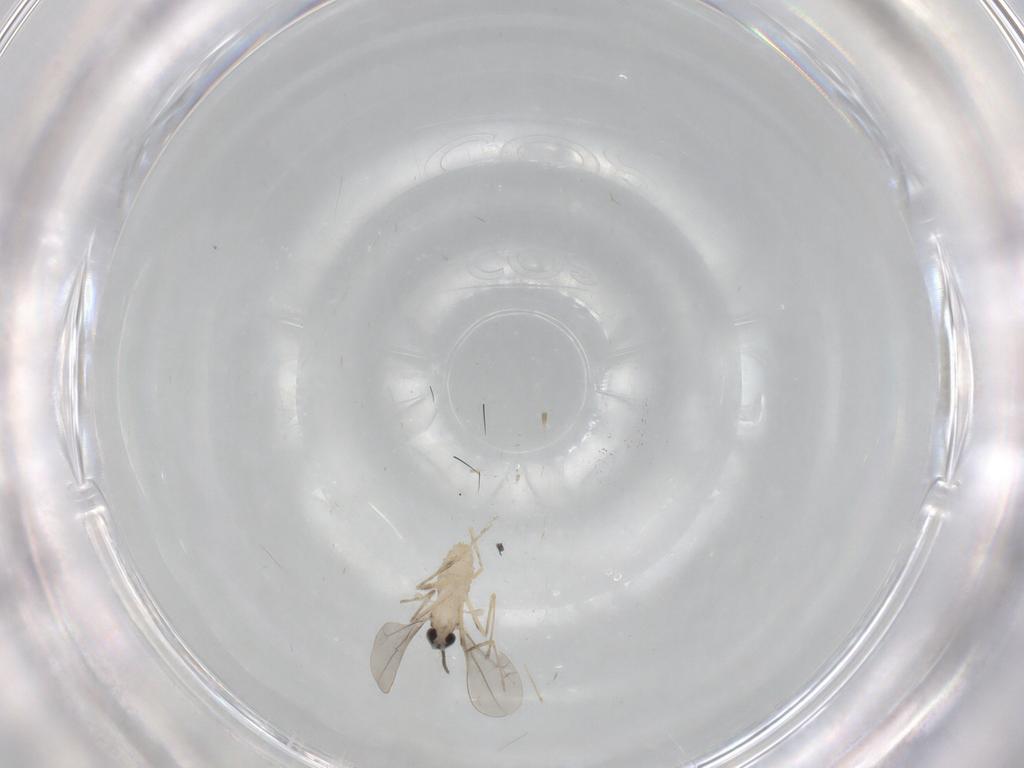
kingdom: Animalia
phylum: Arthropoda
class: Insecta
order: Diptera
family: Cecidomyiidae
